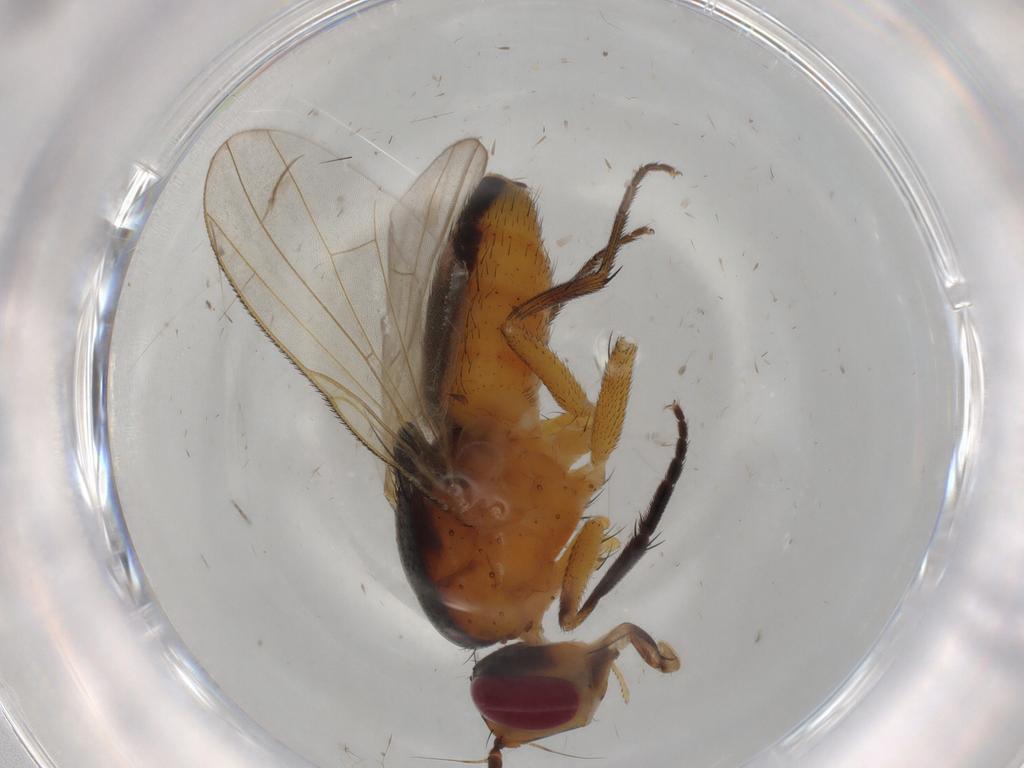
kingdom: Animalia
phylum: Arthropoda
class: Insecta
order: Diptera
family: Muscidae
